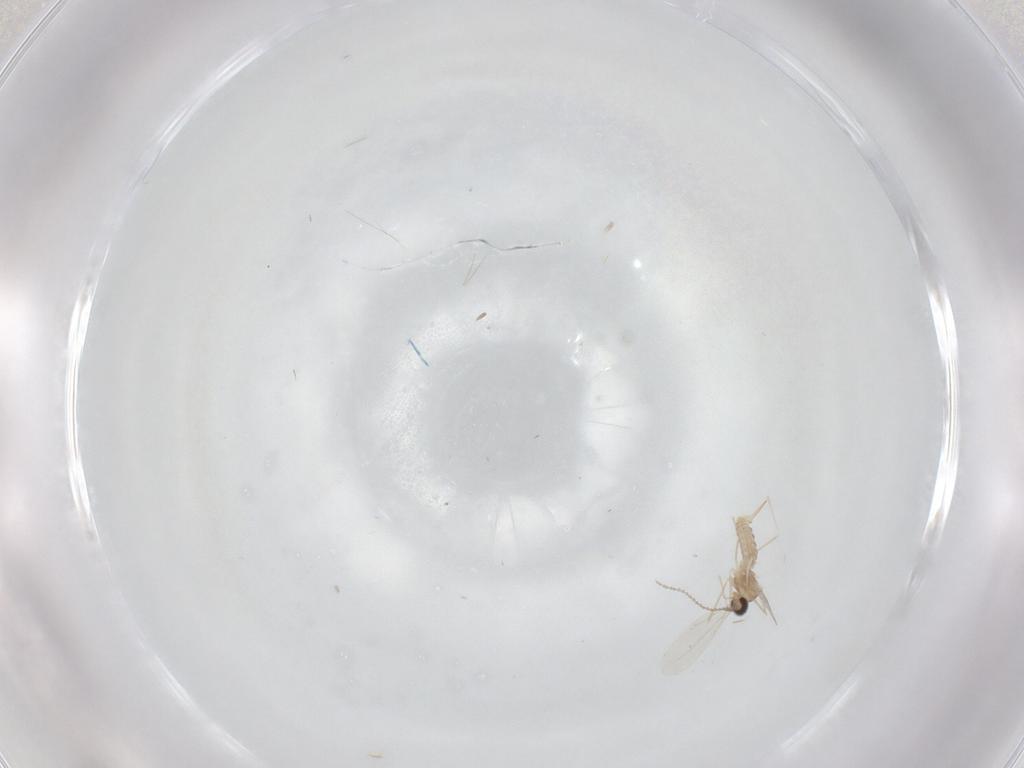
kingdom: Animalia
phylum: Arthropoda
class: Insecta
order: Diptera
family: Cecidomyiidae
